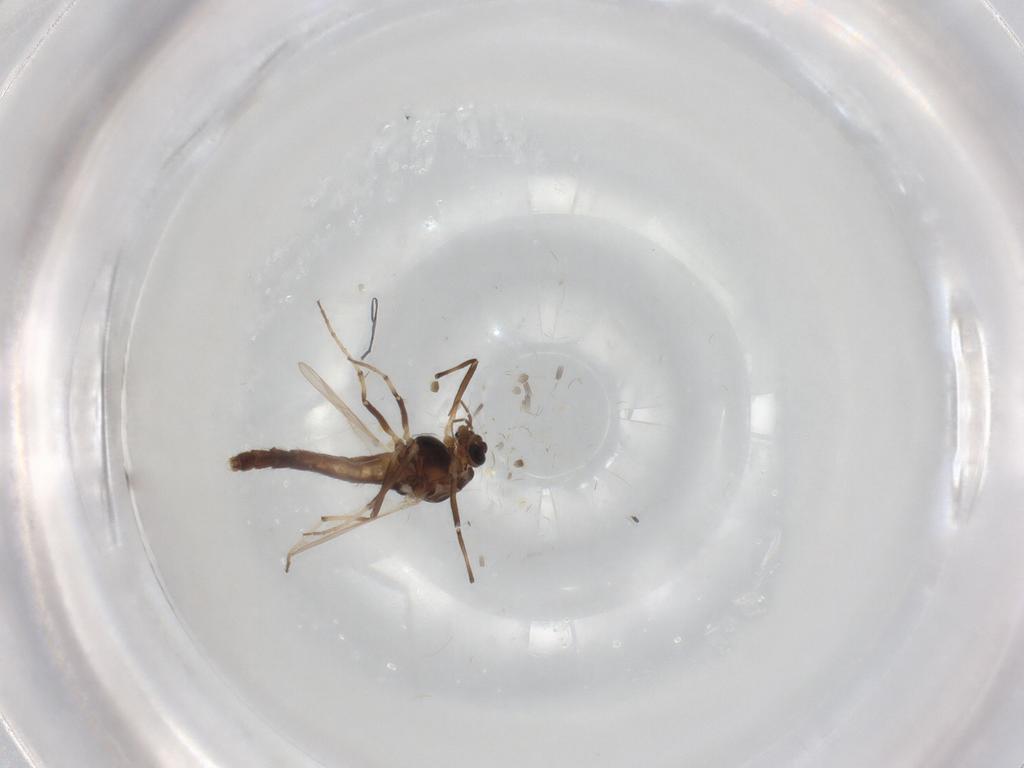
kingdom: Animalia
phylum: Arthropoda
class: Insecta
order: Diptera
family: Chironomidae
